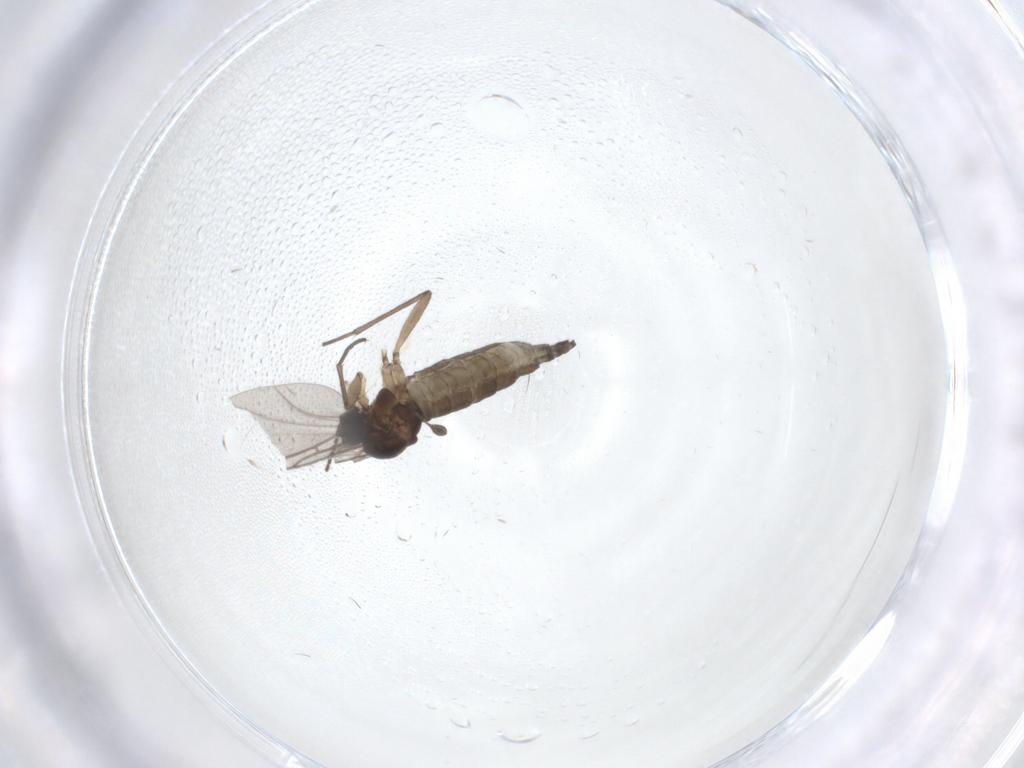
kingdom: Animalia
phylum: Arthropoda
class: Insecta
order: Diptera
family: Sciaridae
